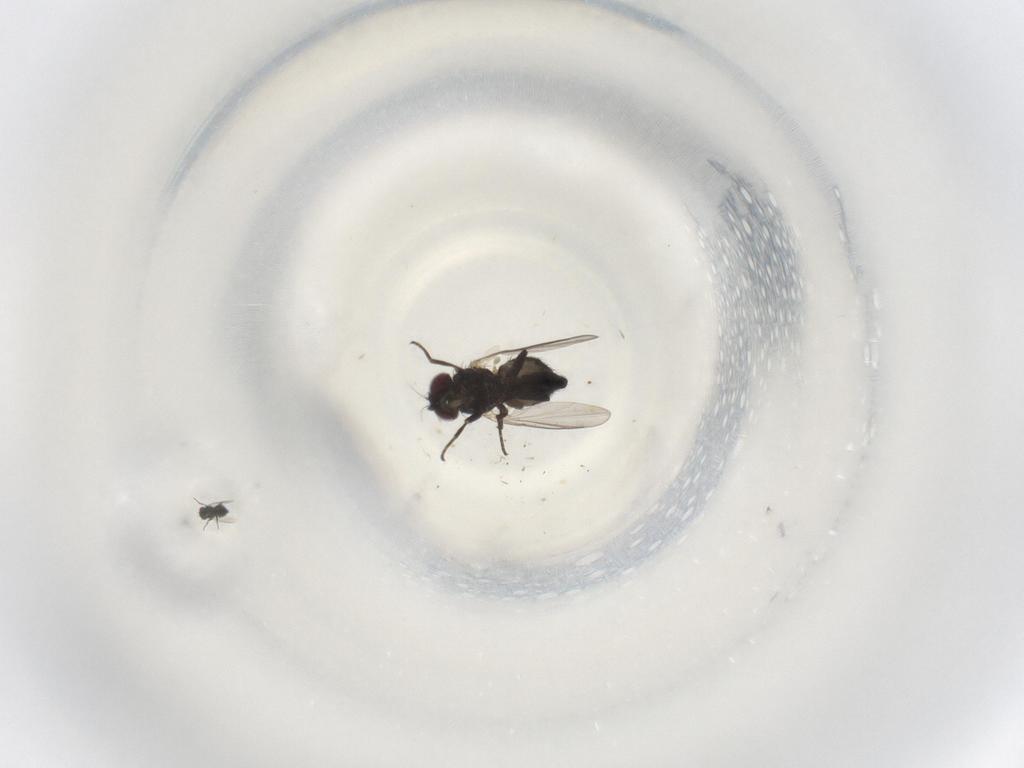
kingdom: Animalia
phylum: Arthropoda
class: Insecta
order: Diptera
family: Agromyzidae
